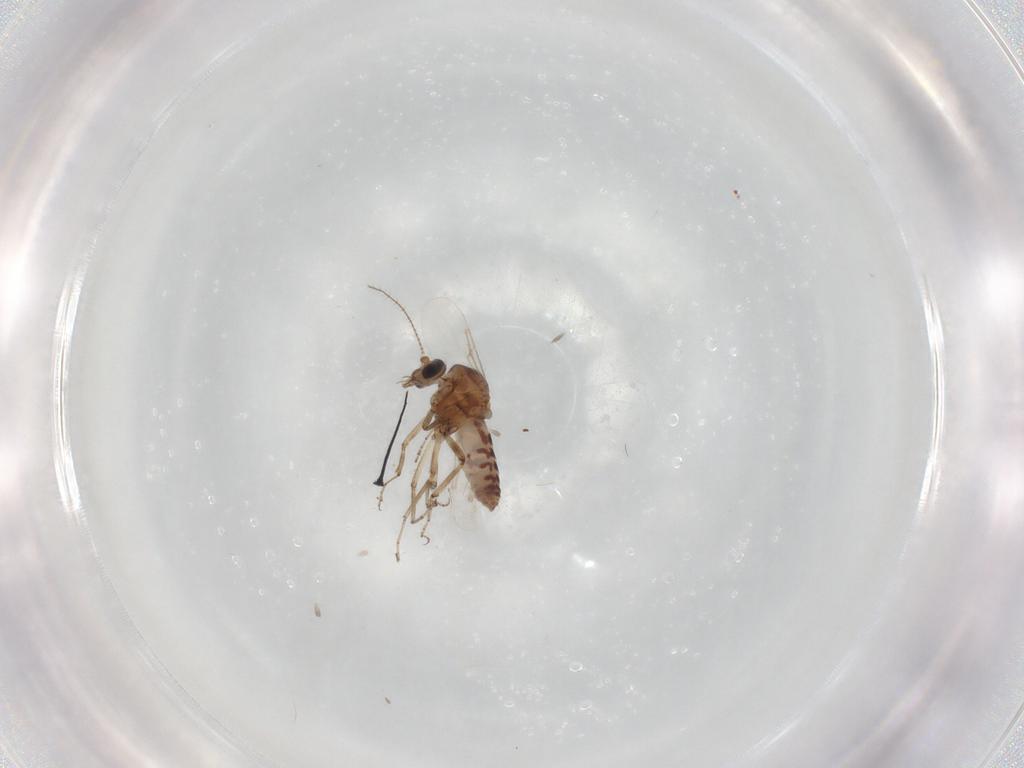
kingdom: Animalia
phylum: Arthropoda
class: Insecta
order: Diptera
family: Ceratopogonidae
